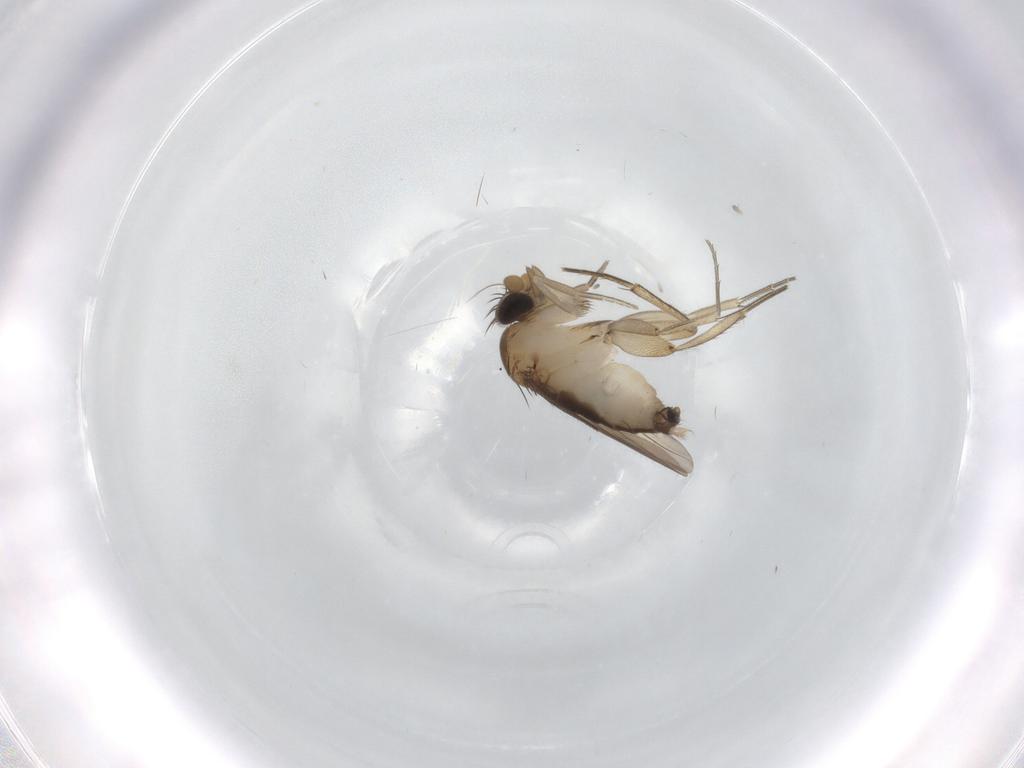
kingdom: Animalia
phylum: Arthropoda
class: Insecta
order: Diptera
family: Phoridae
